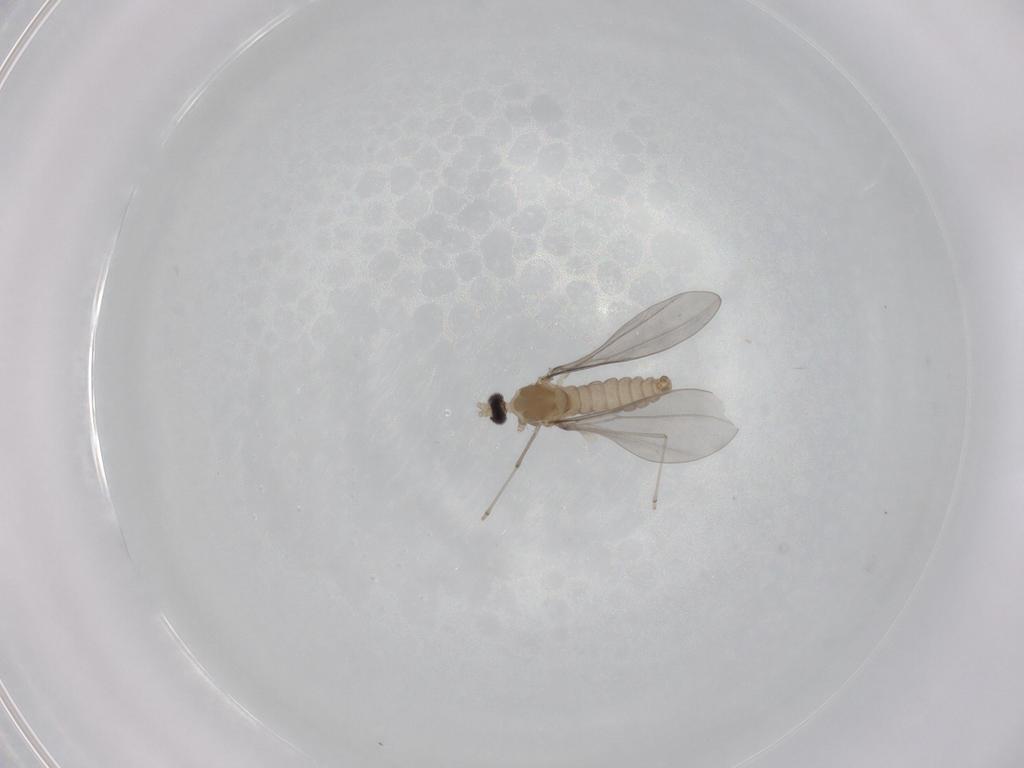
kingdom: Animalia
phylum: Arthropoda
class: Insecta
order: Diptera
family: Cecidomyiidae
